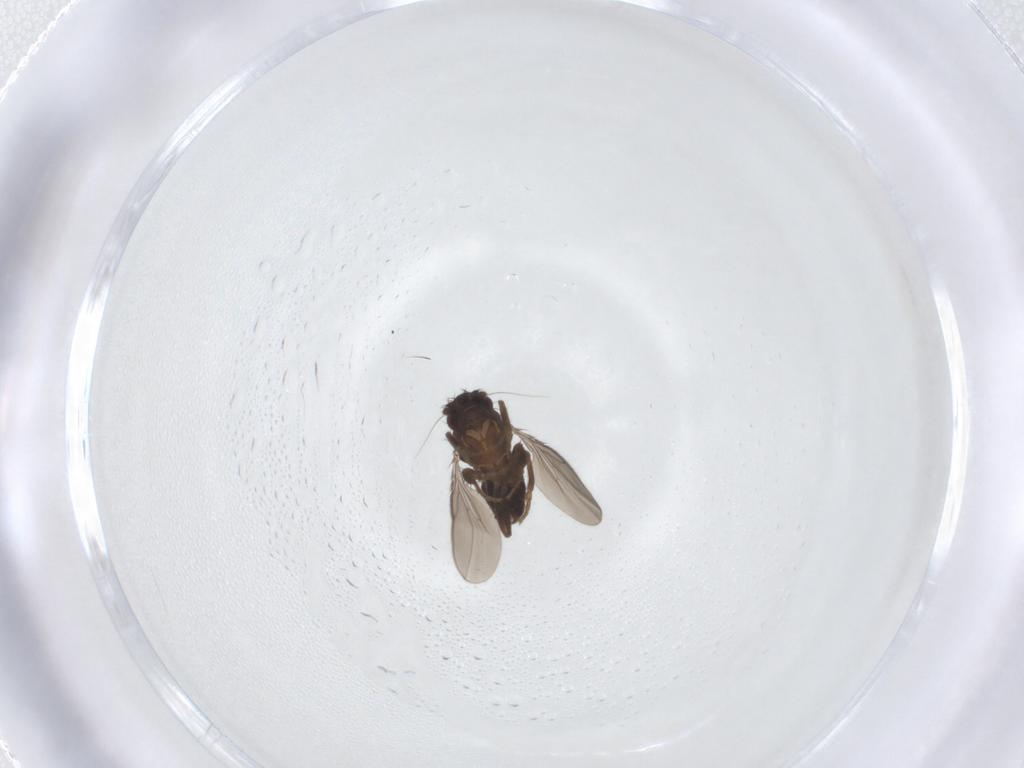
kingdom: Animalia
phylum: Arthropoda
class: Insecta
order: Diptera
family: Sphaeroceridae
